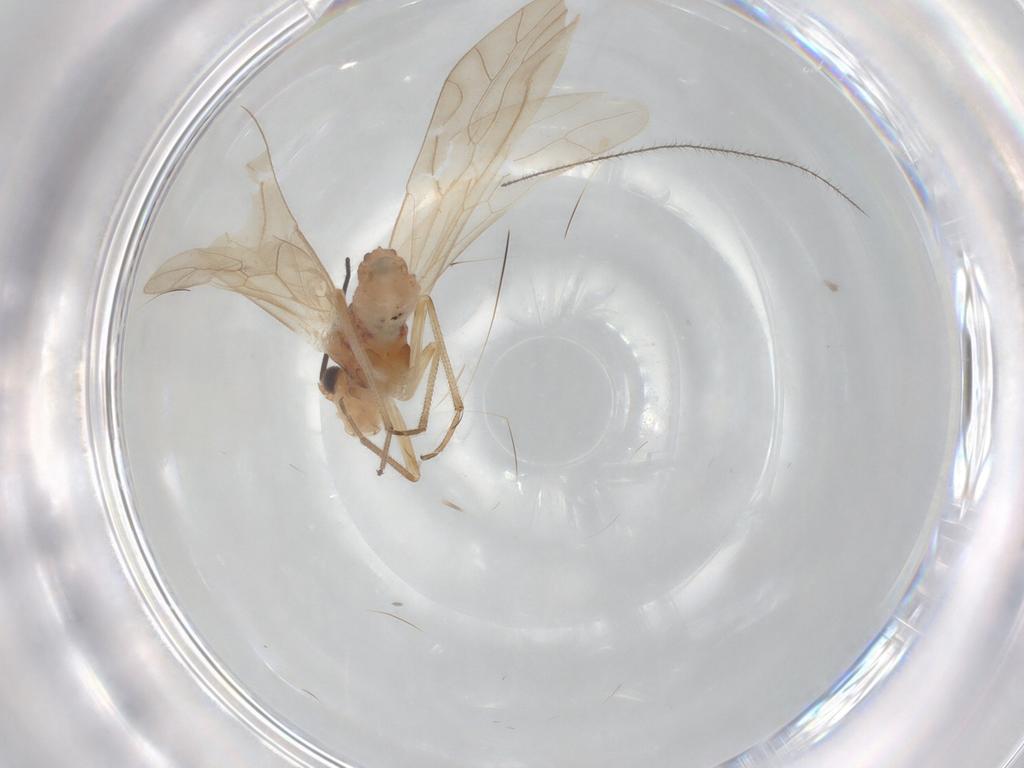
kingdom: Animalia
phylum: Arthropoda
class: Insecta
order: Psocodea
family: Caeciliusidae
